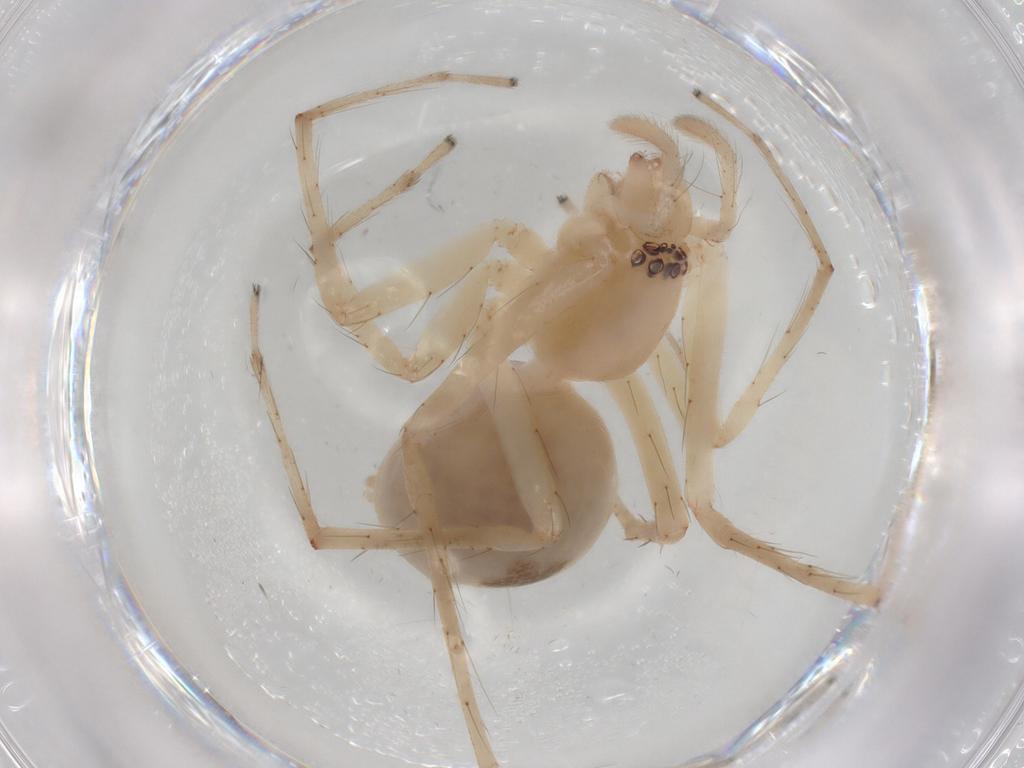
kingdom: Animalia
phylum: Arthropoda
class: Arachnida
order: Araneae
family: Anyphaenidae
